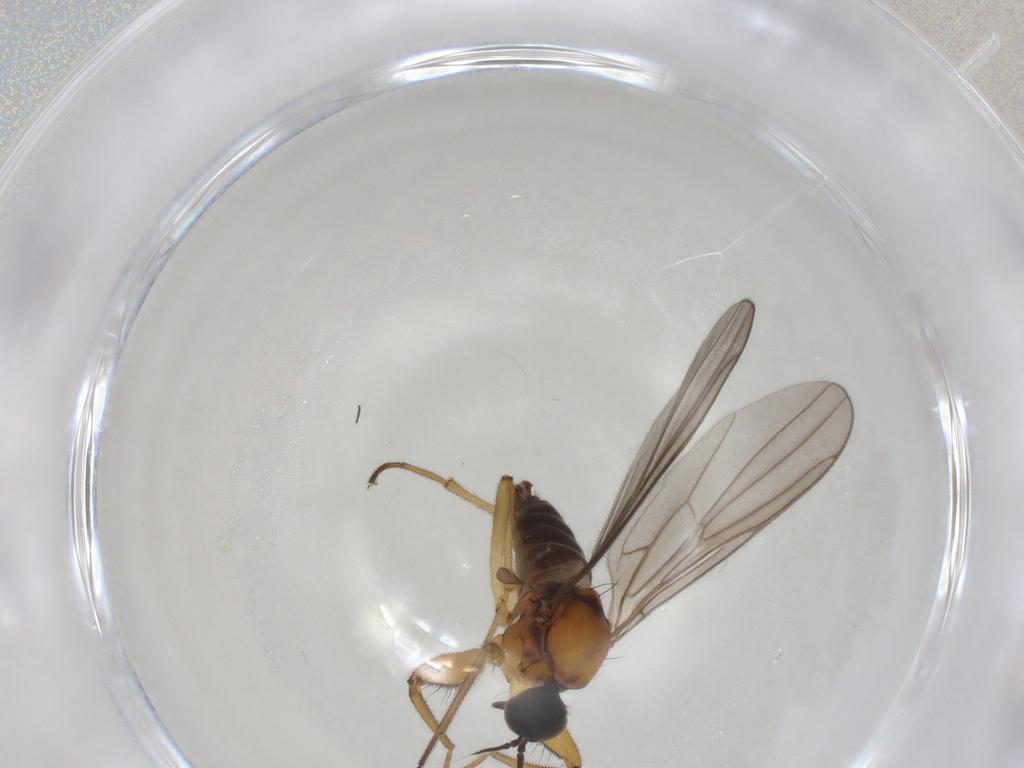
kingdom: Animalia
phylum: Arthropoda
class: Insecta
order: Diptera
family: Hybotidae
